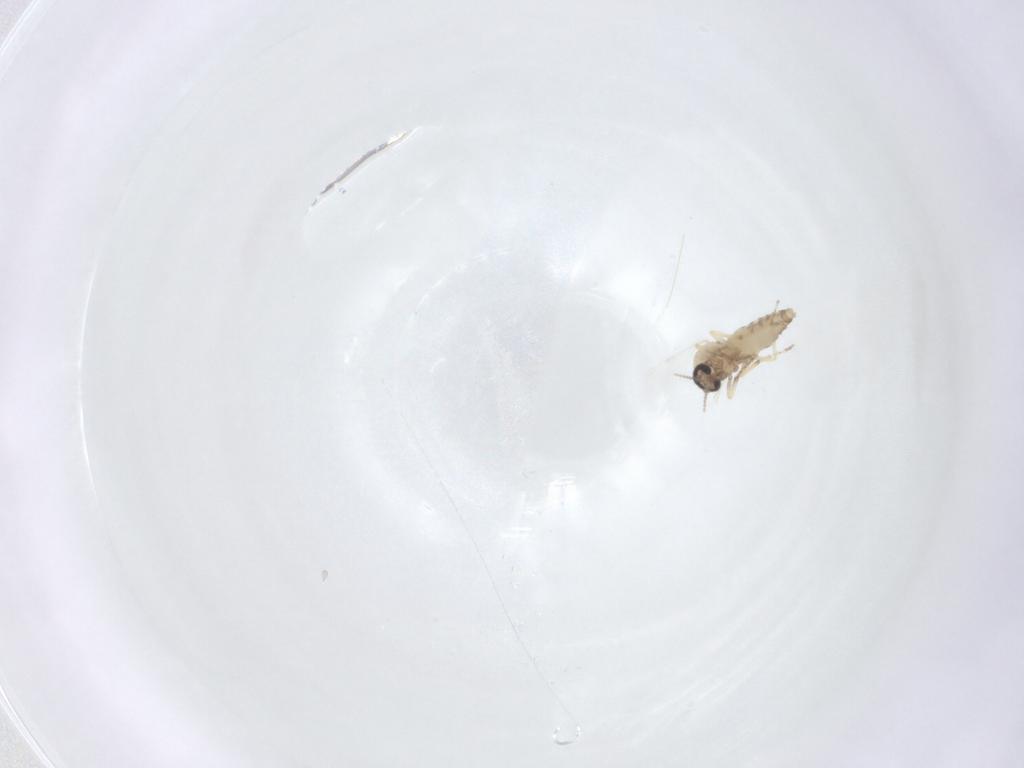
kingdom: Animalia
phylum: Arthropoda
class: Insecta
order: Diptera
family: Ceratopogonidae
